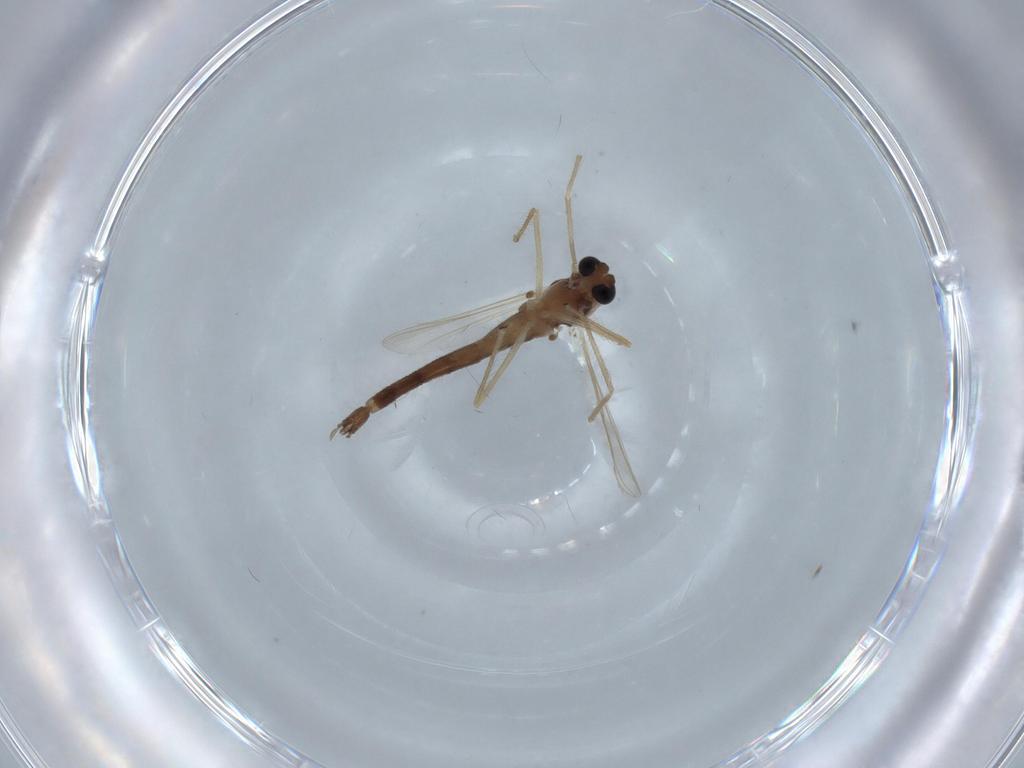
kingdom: Animalia
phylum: Arthropoda
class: Insecta
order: Diptera
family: Chironomidae
